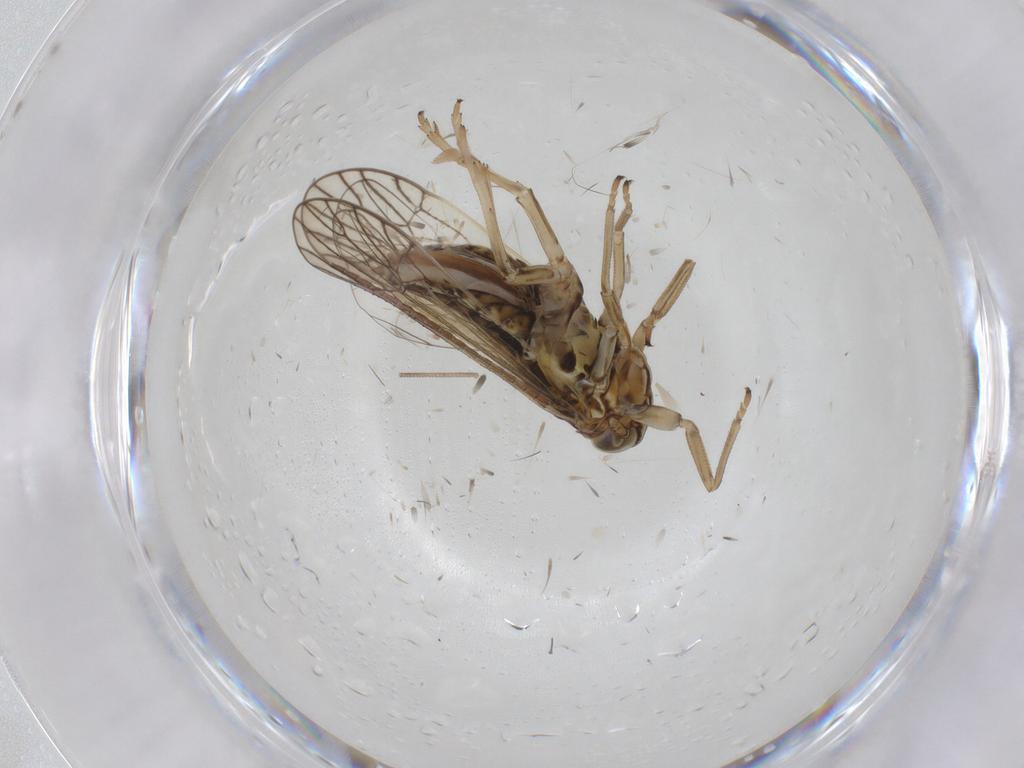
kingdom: Animalia
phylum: Arthropoda
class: Insecta
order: Hemiptera
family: Delphacidae
